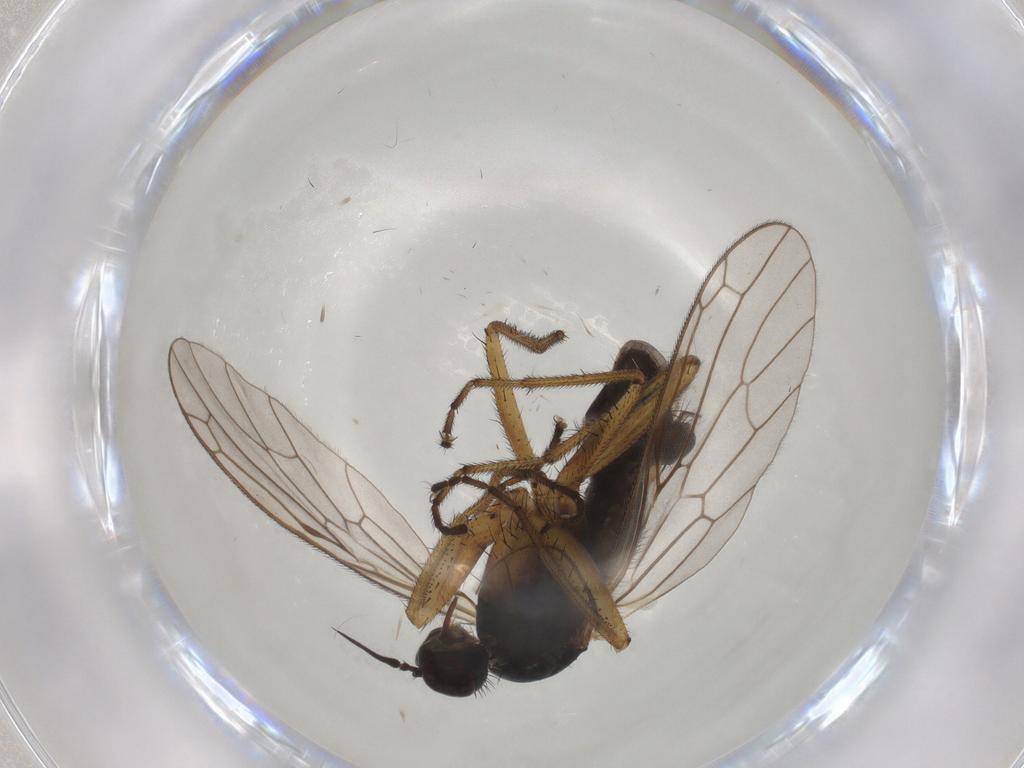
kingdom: Animalia
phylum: Arthropoda
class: Insecta
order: Diptera
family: Cecidomyiidae
